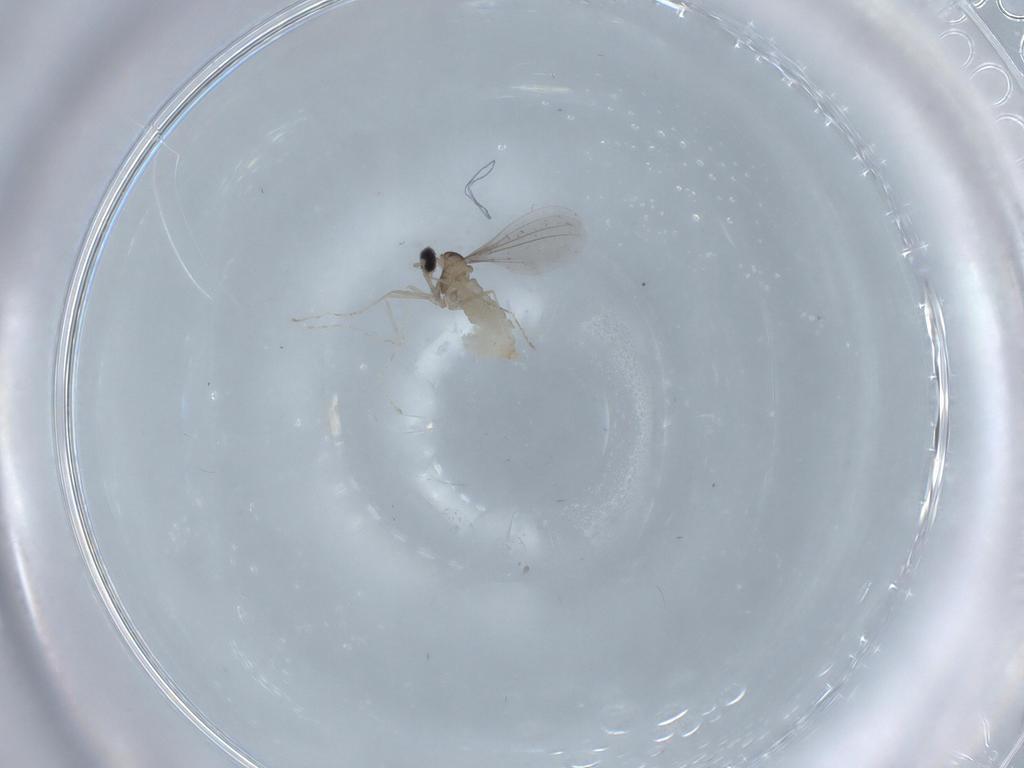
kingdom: Animalia
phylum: Arthropoda
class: Insecta
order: Diptera
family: Cecidomyiidae
